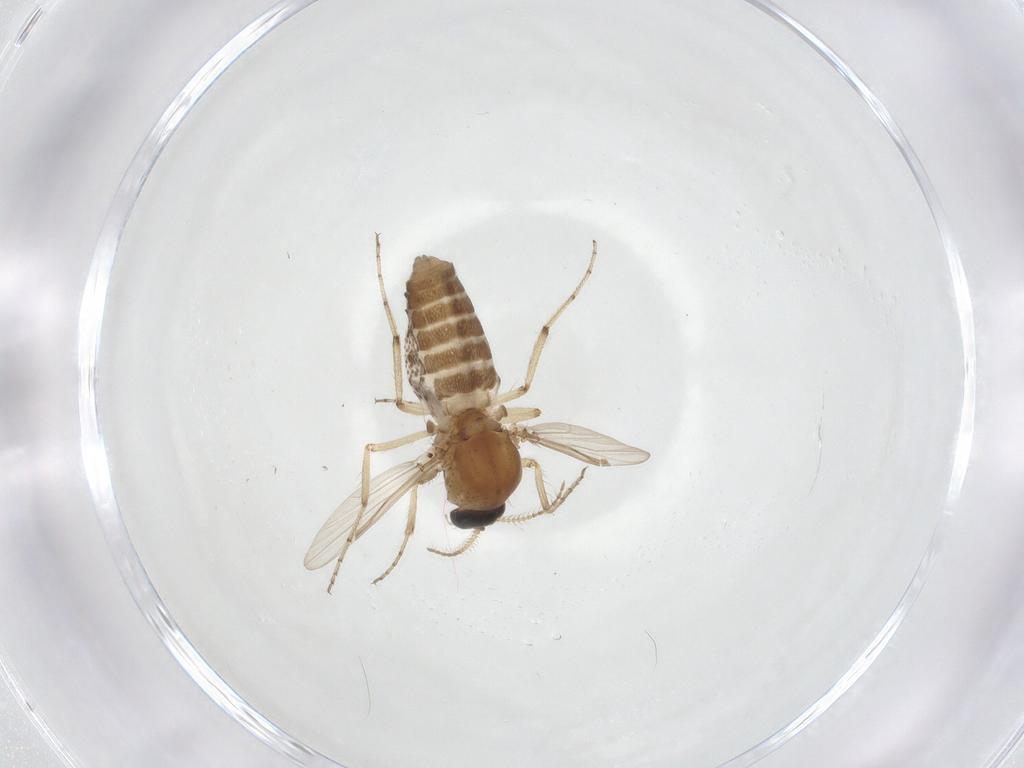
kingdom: Animalia
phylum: Arthropoda
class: Insecta
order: Diptera
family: Ceratopogonidae
